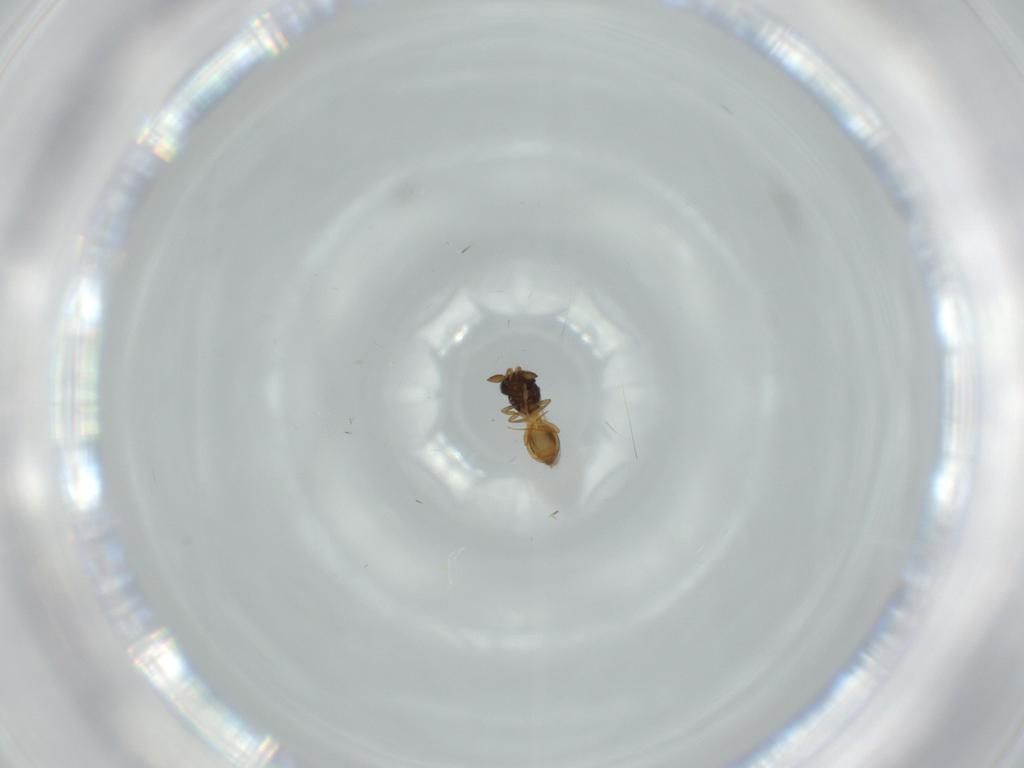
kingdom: Animalia
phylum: Arthropoda
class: Insecta
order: Hymenoptera
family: Scelionidae
